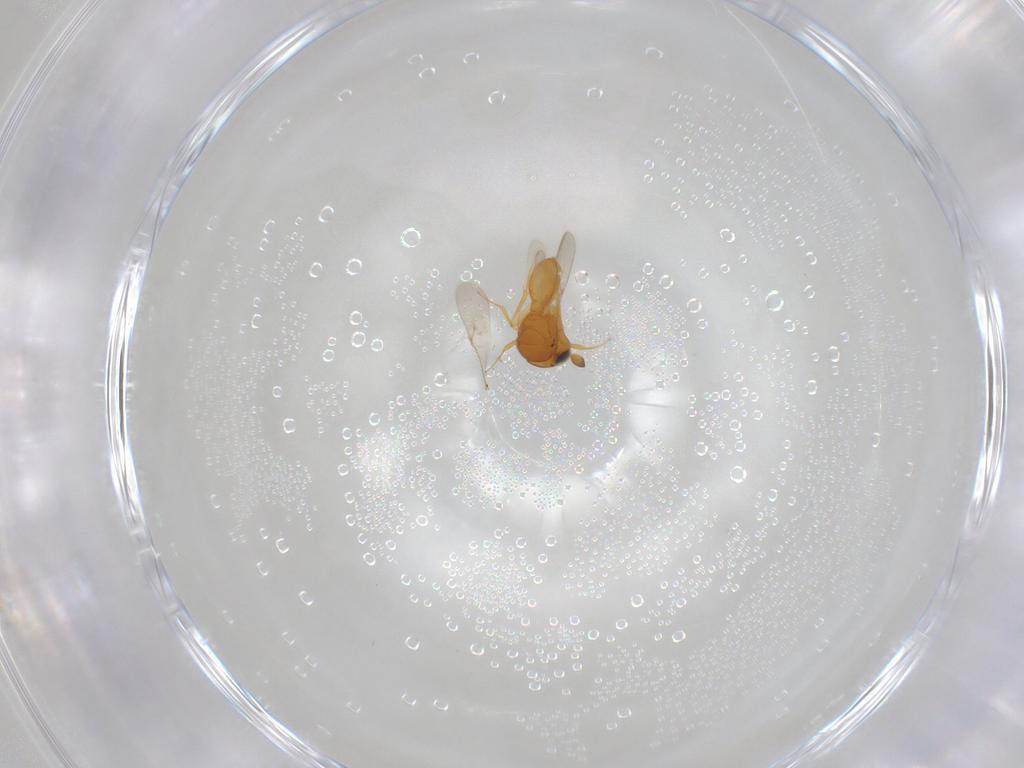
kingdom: Animalia
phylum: Arthropoda
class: Insecta
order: Hymenoptera
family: Scelionidae
